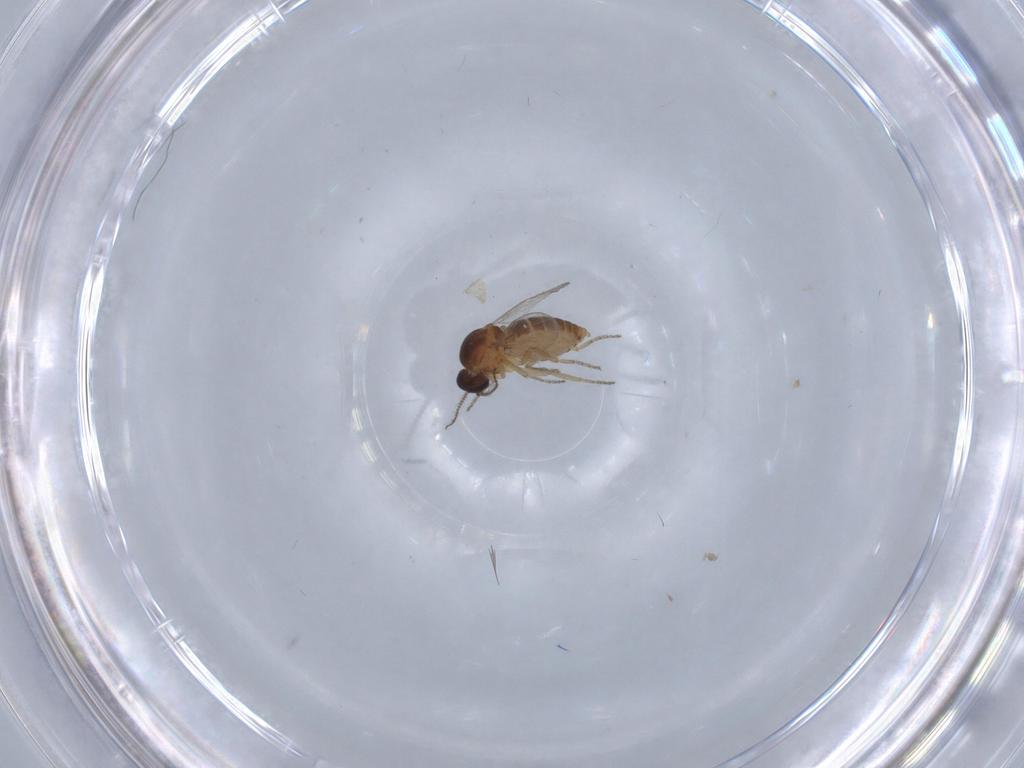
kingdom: Animalia
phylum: Arthropoda
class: Insecta
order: Diptera
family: Ceratopogonidae
